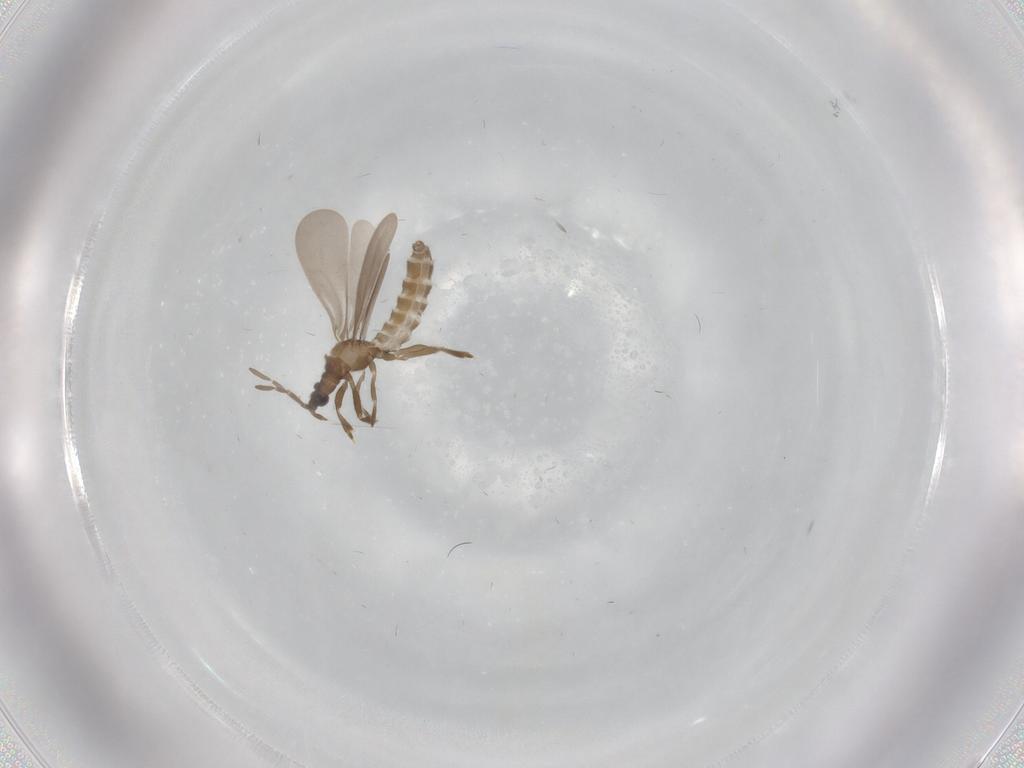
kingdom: Animalia
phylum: Arthropoda
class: Insecta
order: Hemiptera
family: Enicocephalidae
